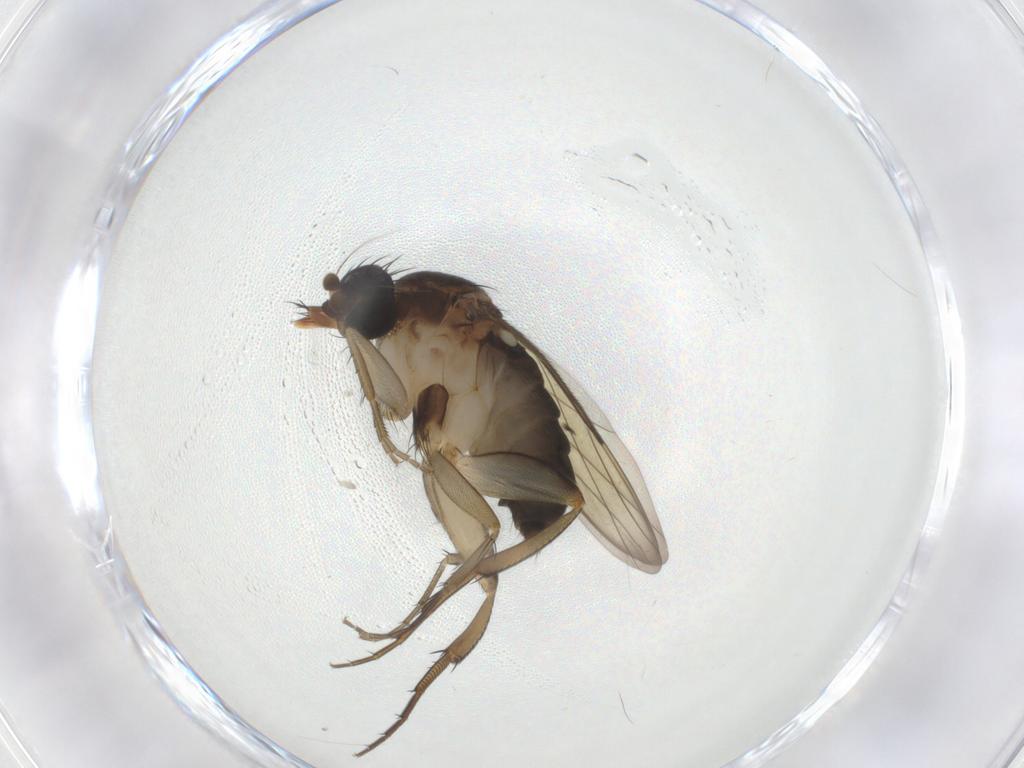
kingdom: Animalia
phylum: Arthropoda
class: Insecta
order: Diptera
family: Phoridae
